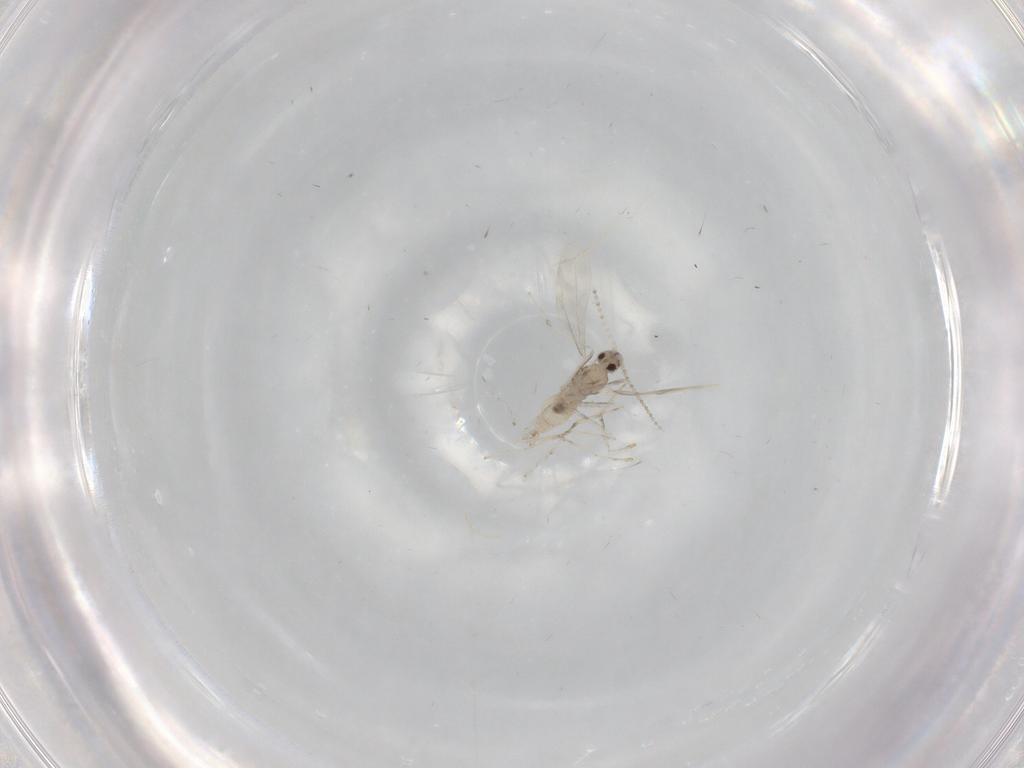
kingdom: Animalia
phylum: Arthropoda
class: Insecta
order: Diptera
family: Cecidomyiidae
